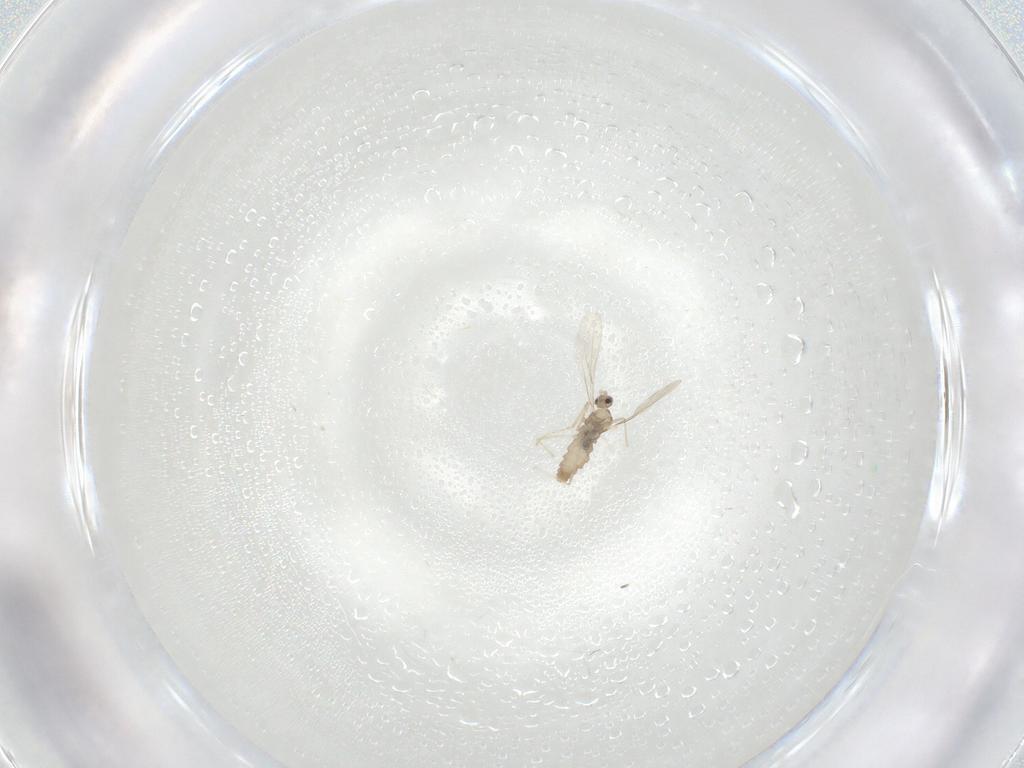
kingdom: Animalia
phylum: Arthropoda
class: Insecta
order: Diptera
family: Cecidomyiidae
